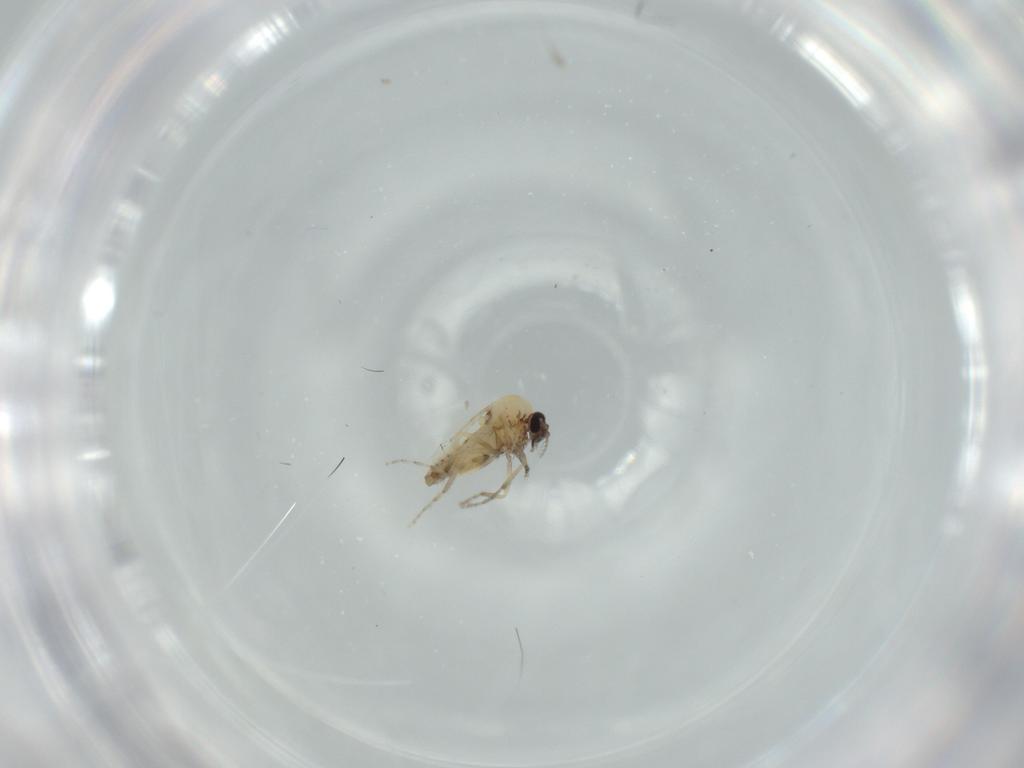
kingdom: Animalia
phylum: Arthropoda
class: Insecta
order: Diptera
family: Ceratopogonidae
